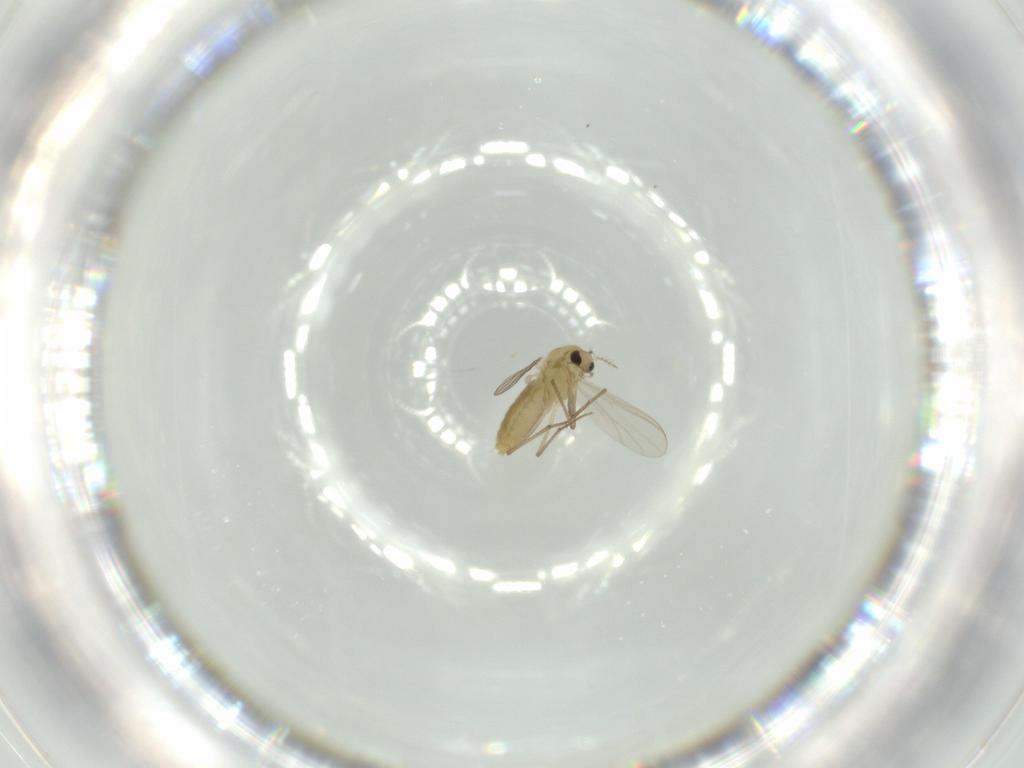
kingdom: Animalia
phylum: Arthropoda
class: Insecta
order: Diptera
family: Chironomidae
